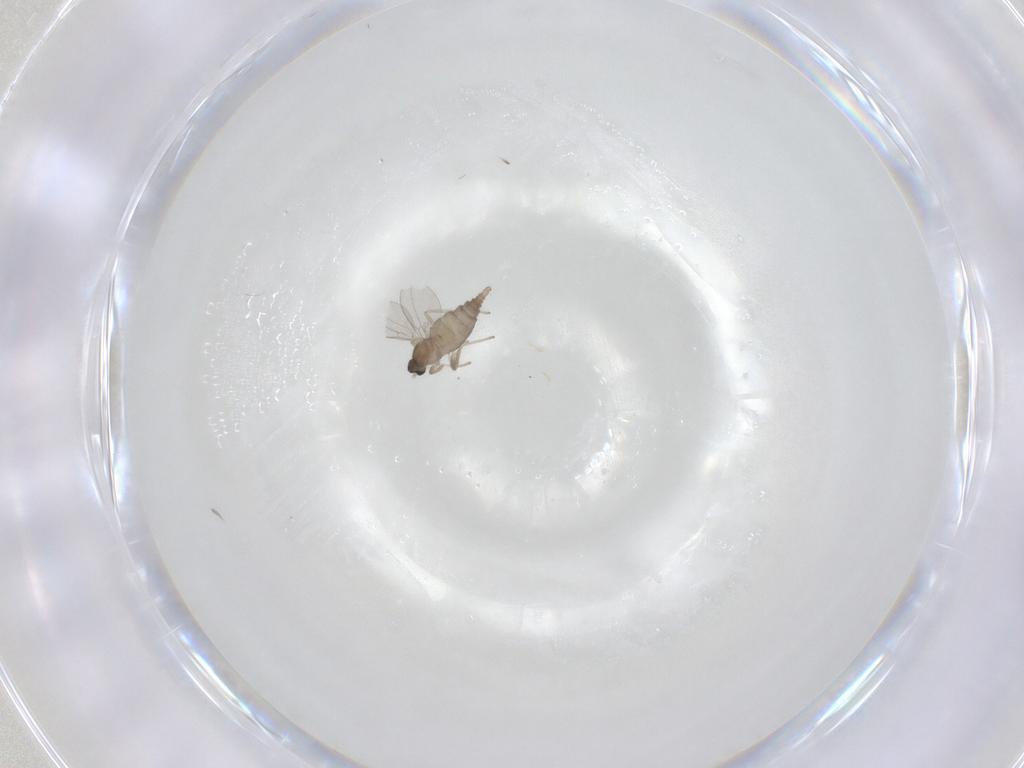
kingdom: Animalia
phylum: Arthropoda
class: Insecta
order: Diptera
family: Cecidomyiidae
